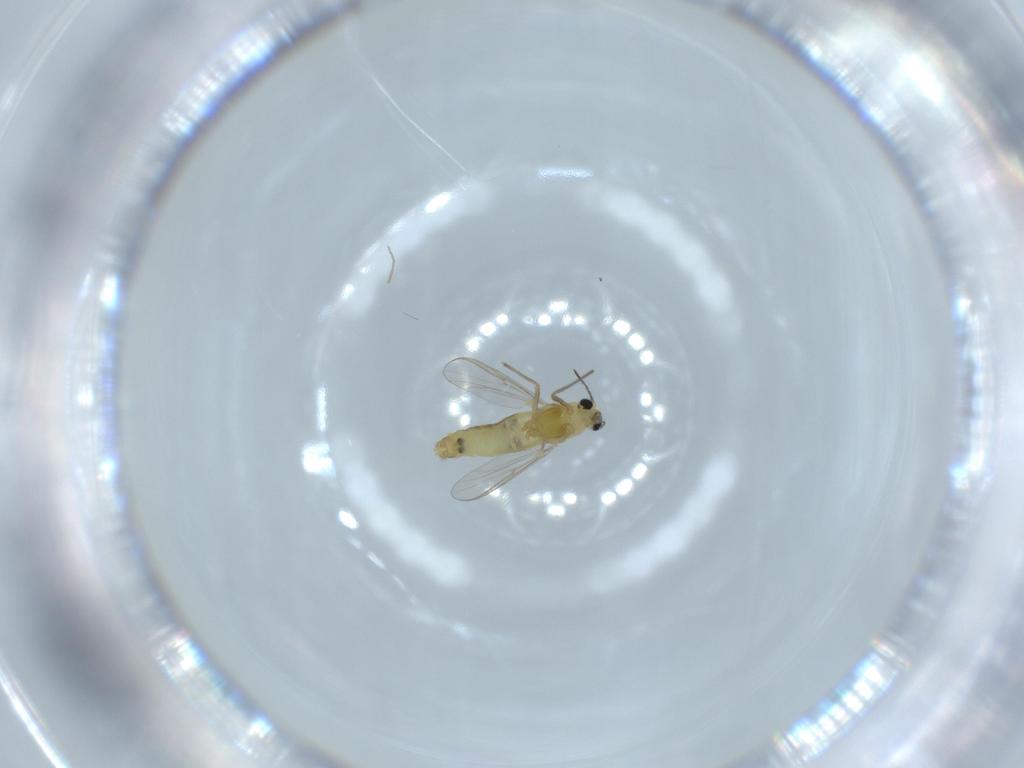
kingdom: Animalia
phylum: Arthropoda
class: Insecta
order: Diptera
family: Chironomidae
